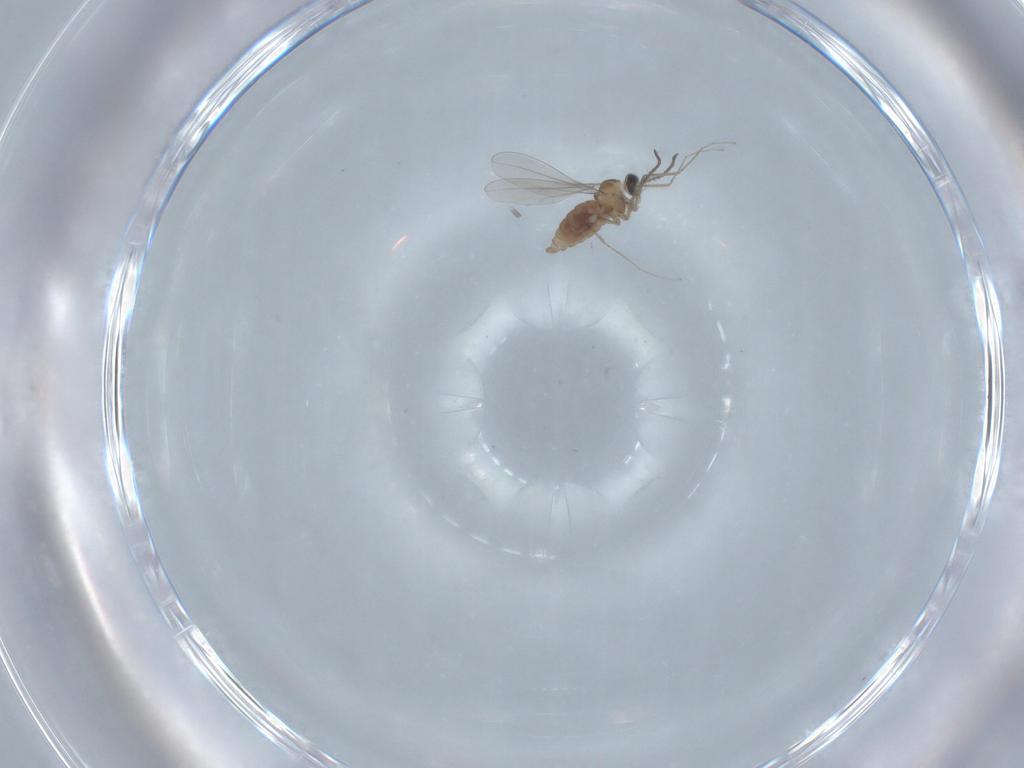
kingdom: Animalia
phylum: Arthropoda
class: Insecta
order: Diptera
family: Cecidomyiidae
